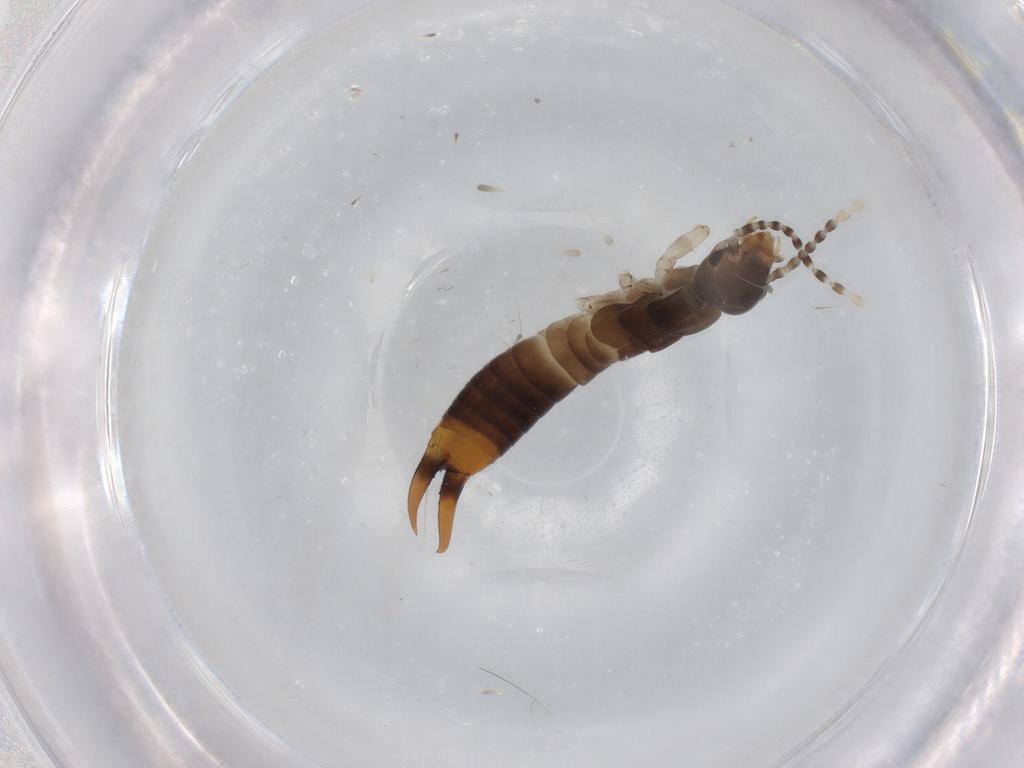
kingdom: Animalia
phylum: Arthropoda
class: Insecta
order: Dermaptera
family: Labiduridae
